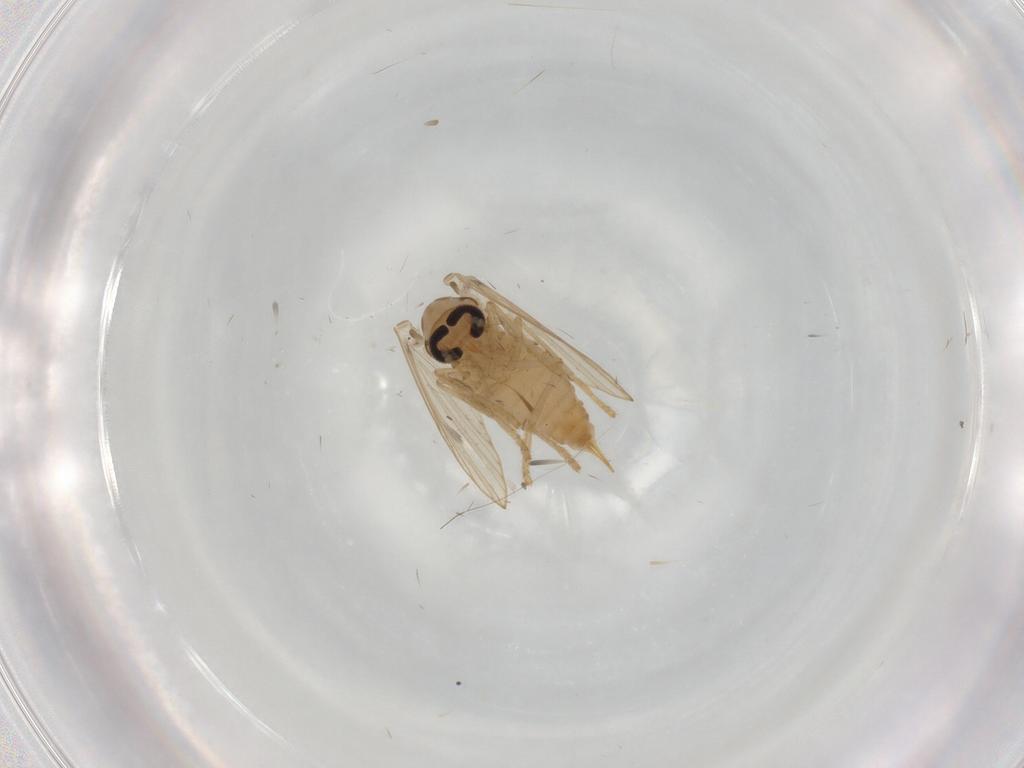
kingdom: Animalia
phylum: Arthropoda
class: Insecta
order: Diptera
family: Psychodidae
